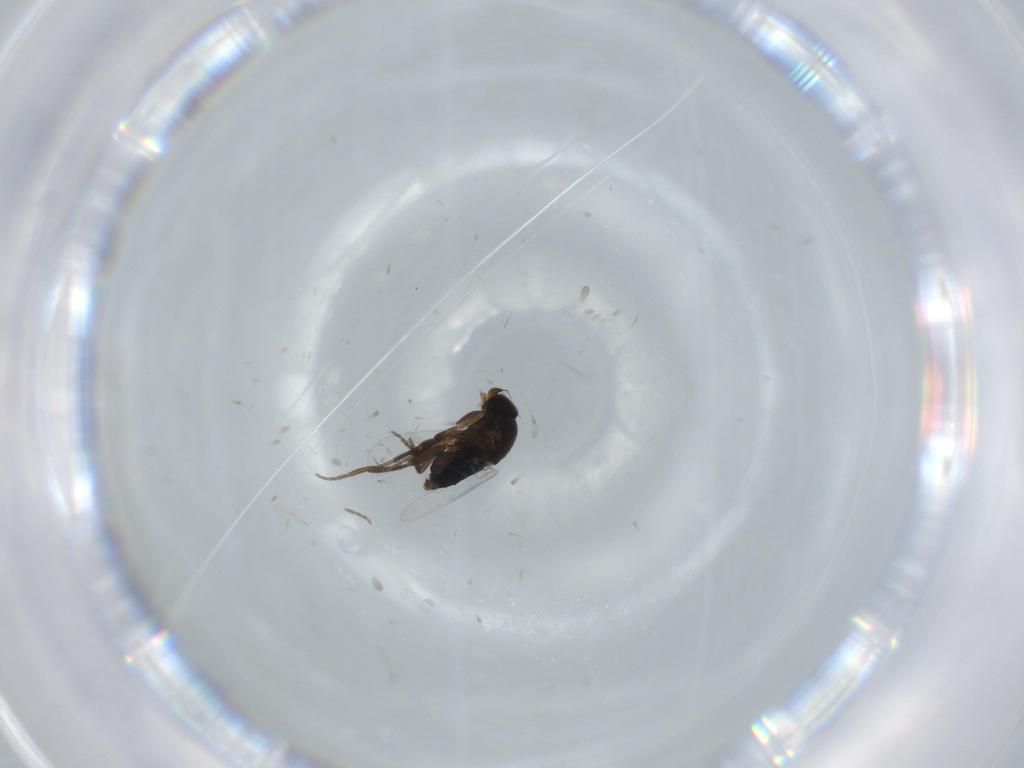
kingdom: Animalia
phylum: Arthropoda
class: Insecta
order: Diptera
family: Phoridae
